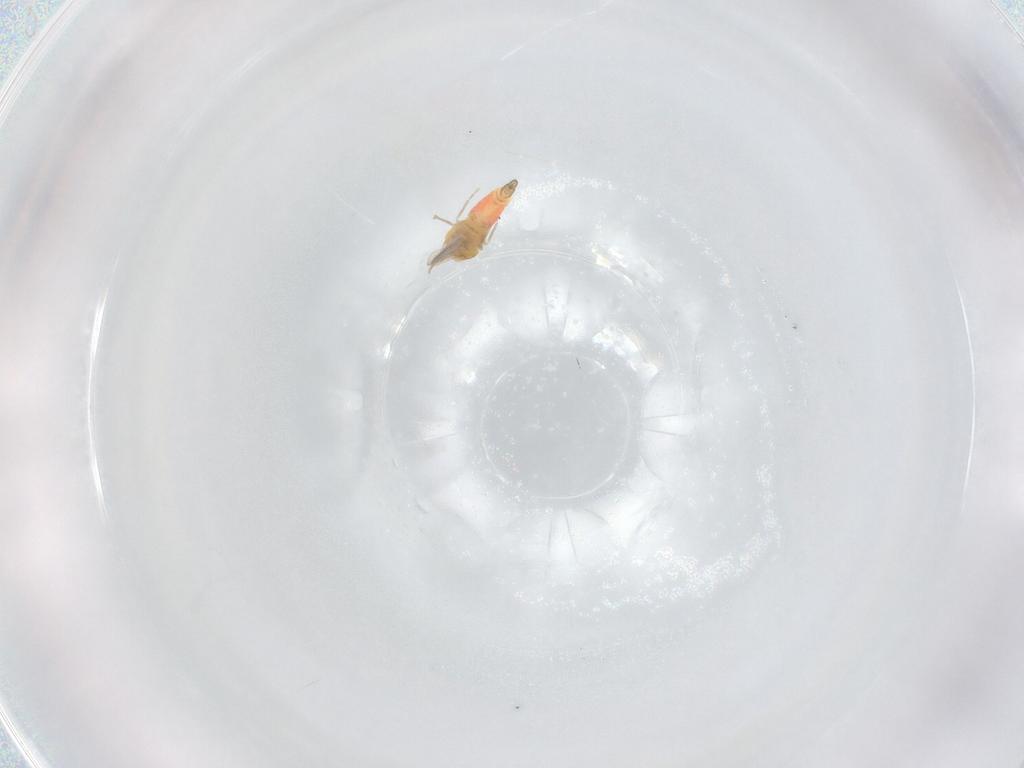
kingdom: Animalia
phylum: Arthropoda
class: Insecta
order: Hemiptera
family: Aleyrodidae
